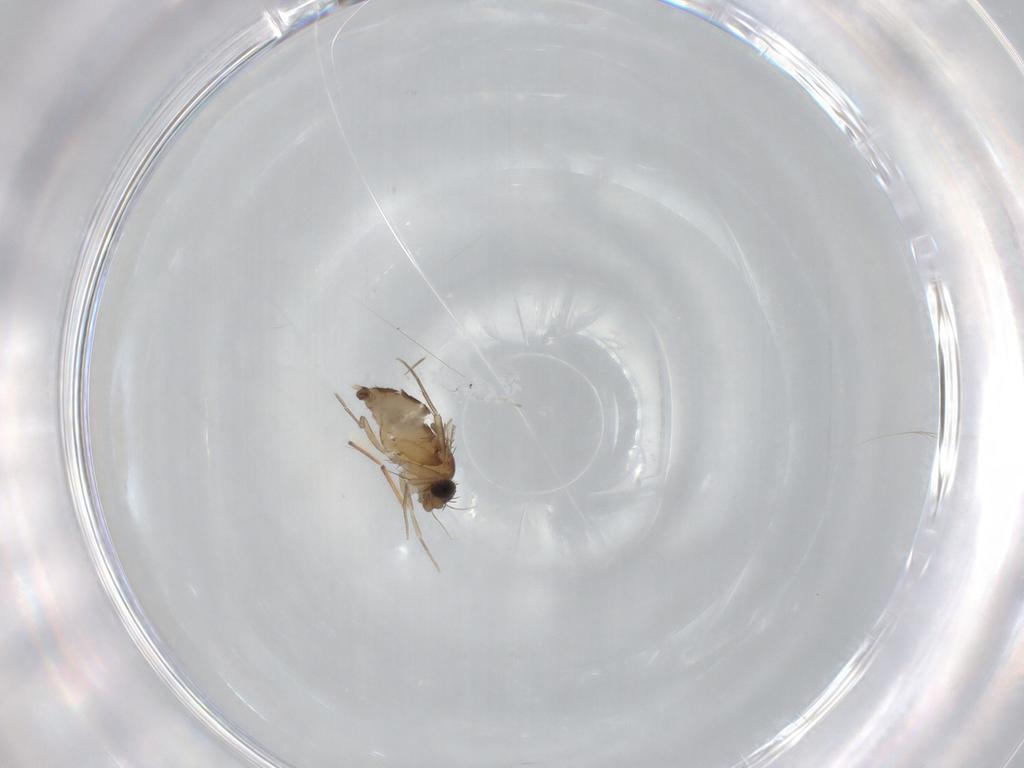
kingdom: Animalia
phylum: Arthropoda
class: Insecta
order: Diptera
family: Phoridae
